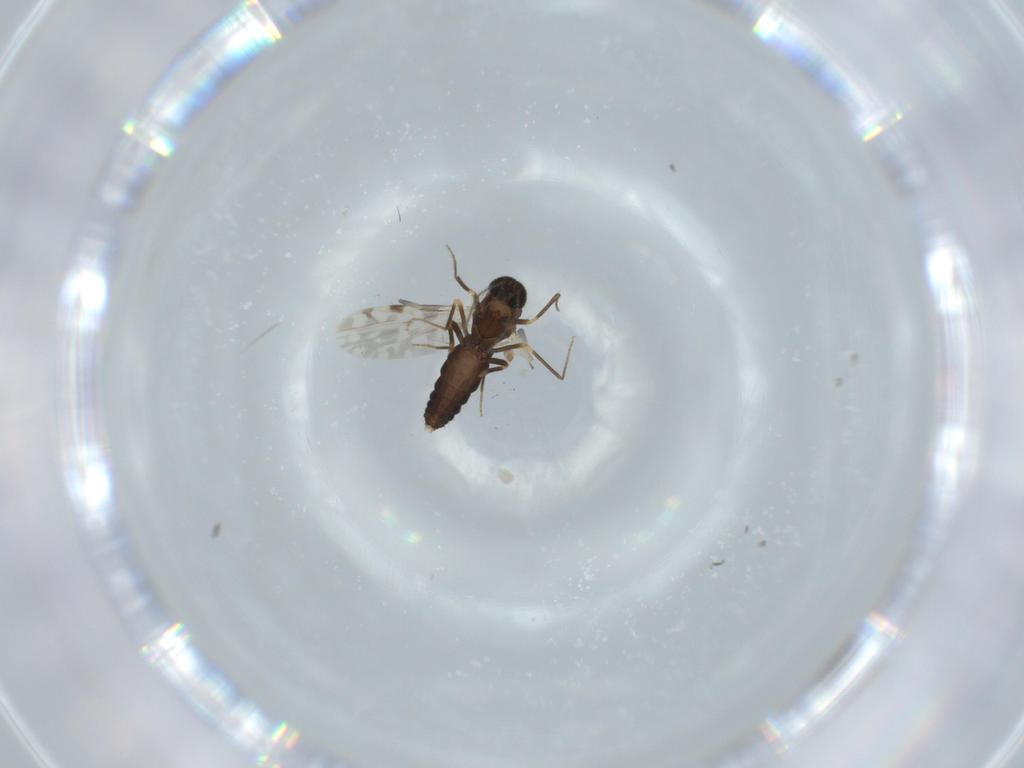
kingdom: Animalia
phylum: Arthropoda
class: Insecta
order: Diptera
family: Ceratopogonidae
